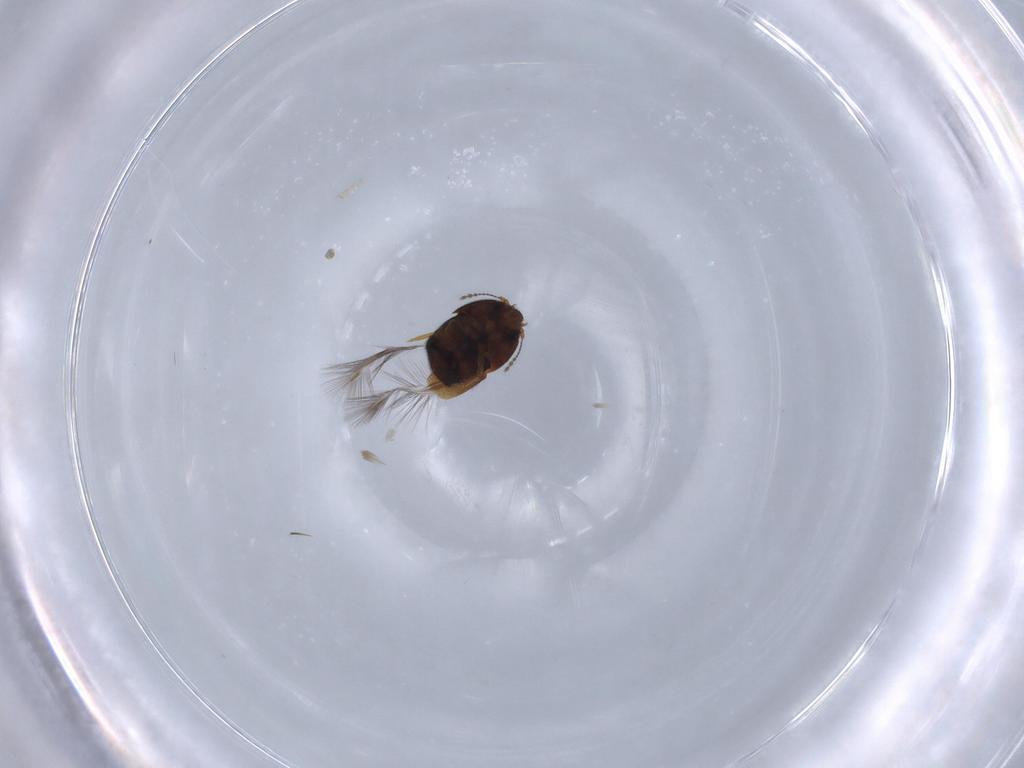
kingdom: Animalia
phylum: Arthropoda
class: Insecta
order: Coleoptera
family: Ptiliidae
